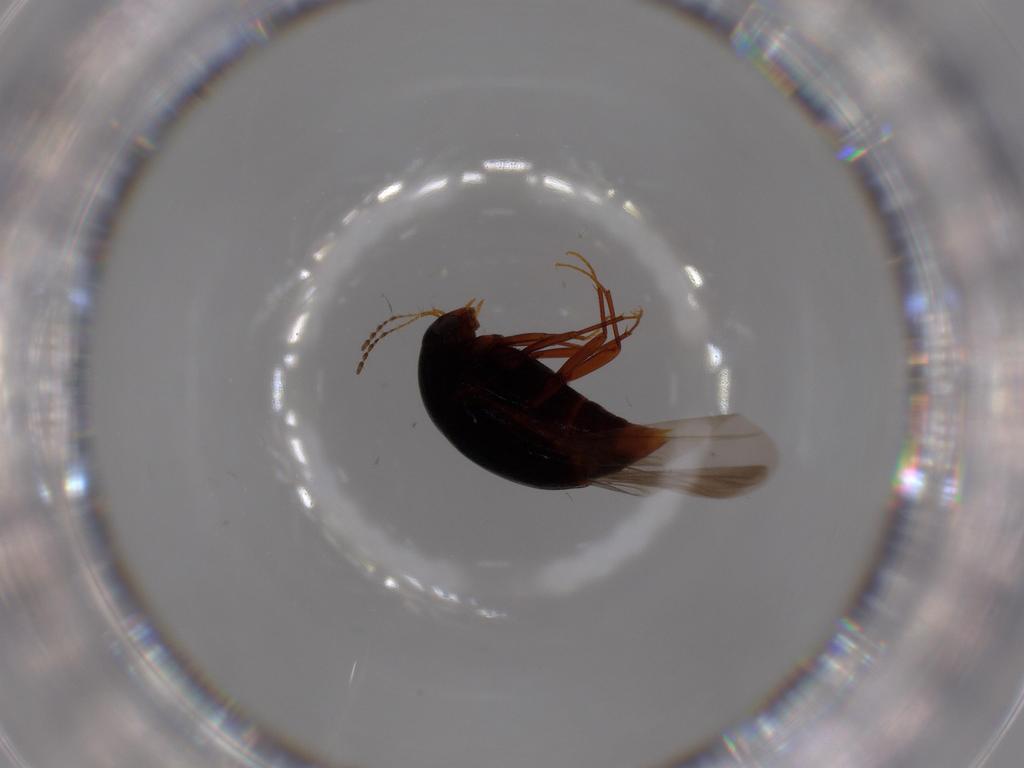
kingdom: Animalia
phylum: Arthropoda
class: Insecta
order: Coleoptera
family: Staphylinidae
